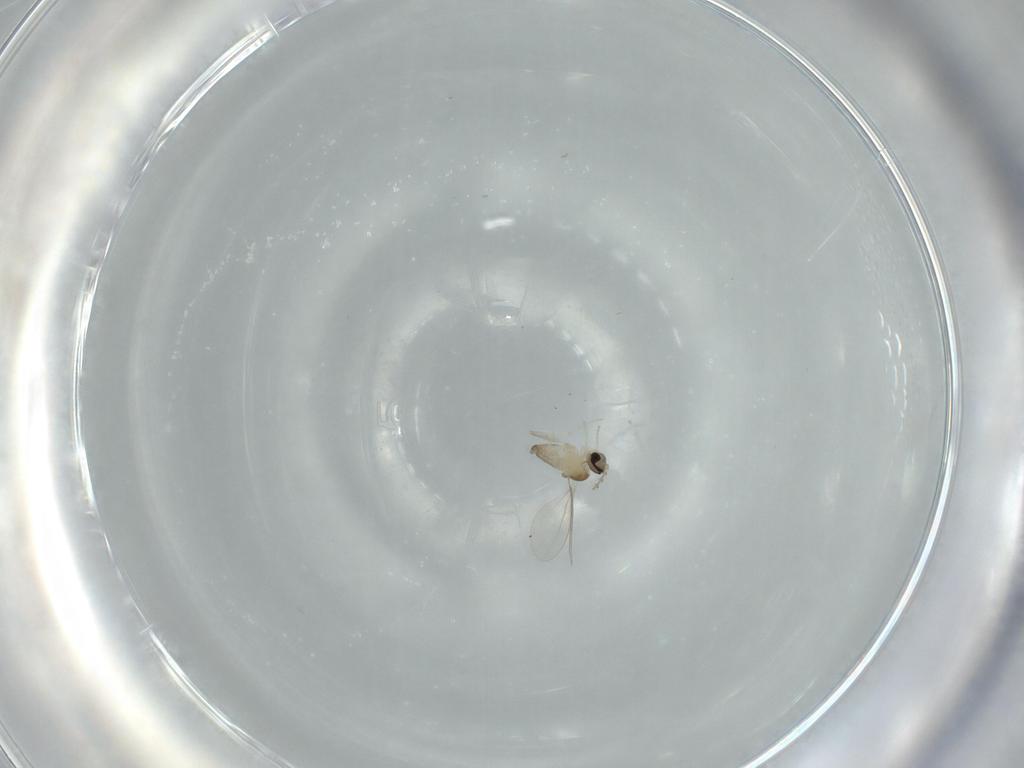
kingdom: Animalia
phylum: Arthropoda
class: Insecta
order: Diptera
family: Cecidomyiidae
